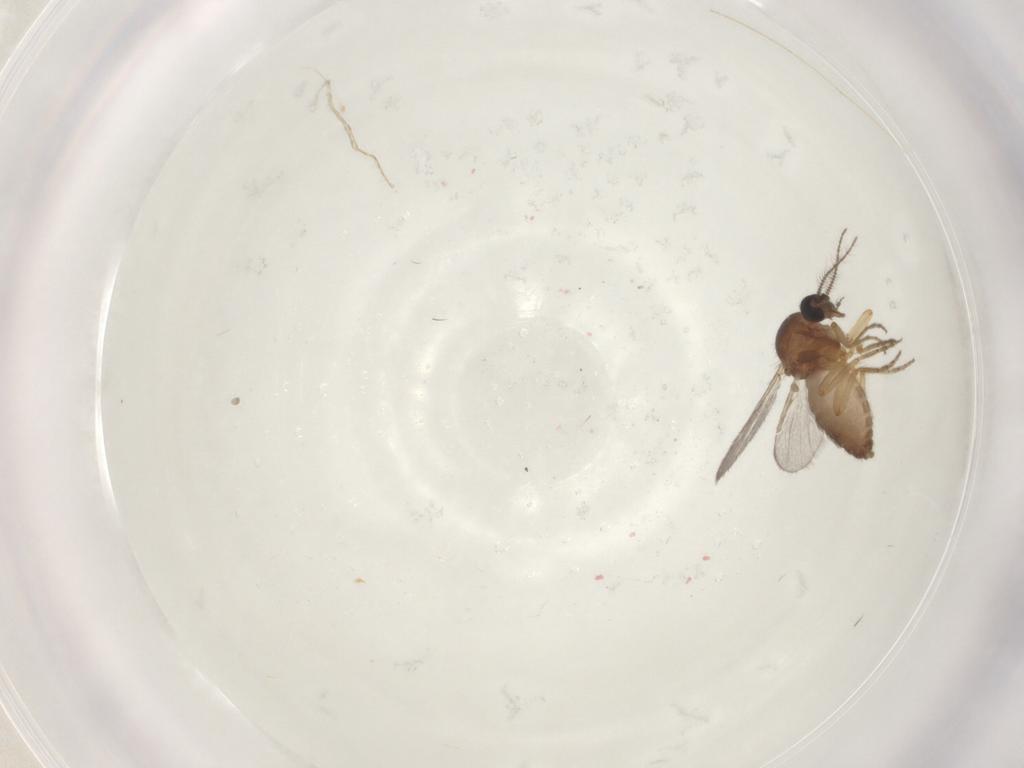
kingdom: Animalia
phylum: Arthropoda
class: Insecta
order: Diptera
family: Ceratopogonidae
